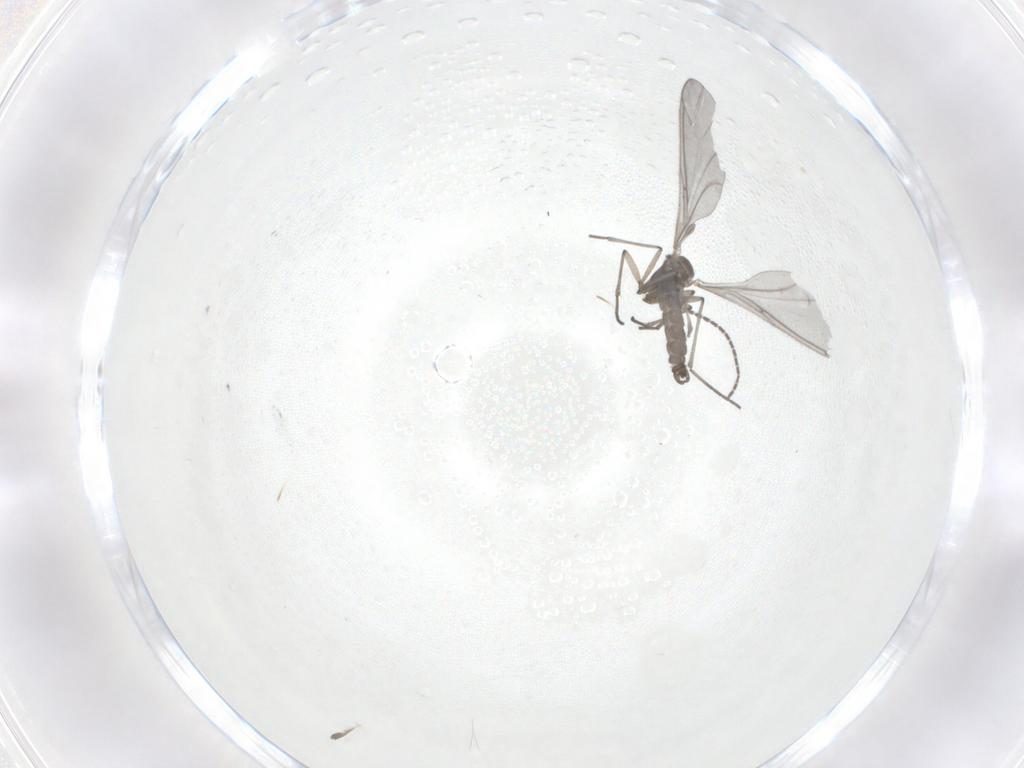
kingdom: Animalia
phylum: Arthropoda
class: Insecta
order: Diptera
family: Sciaridae
